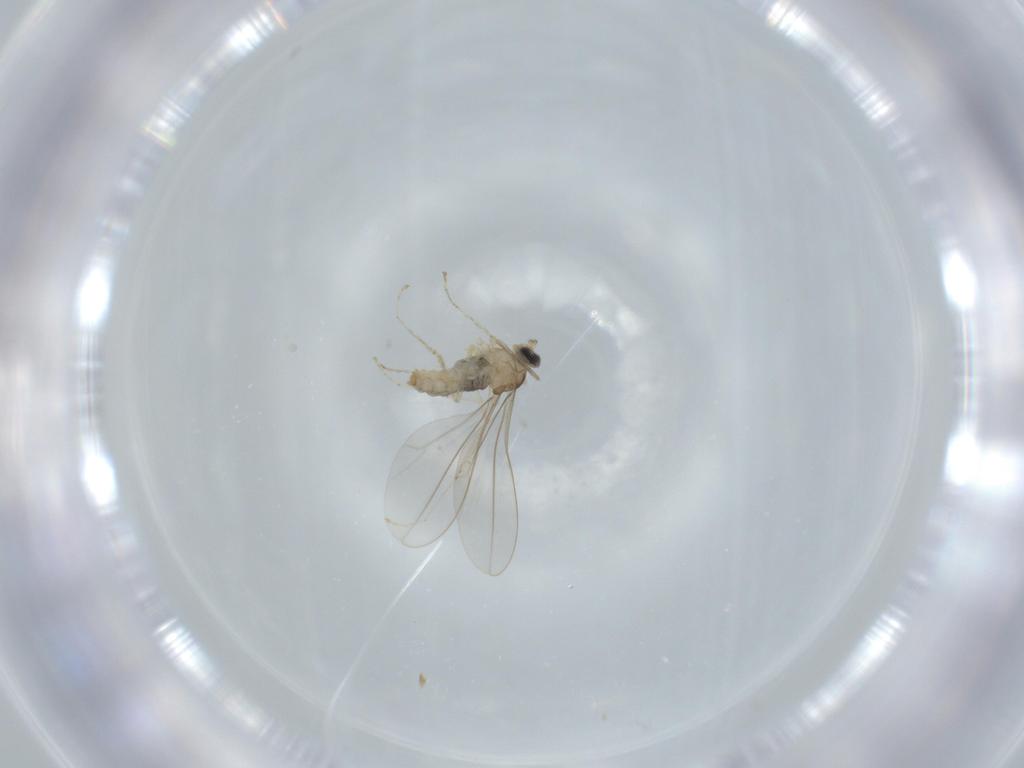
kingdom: Animalia
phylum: Arthropoda
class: Insecta
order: Diptera
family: Cecidomyiidae
